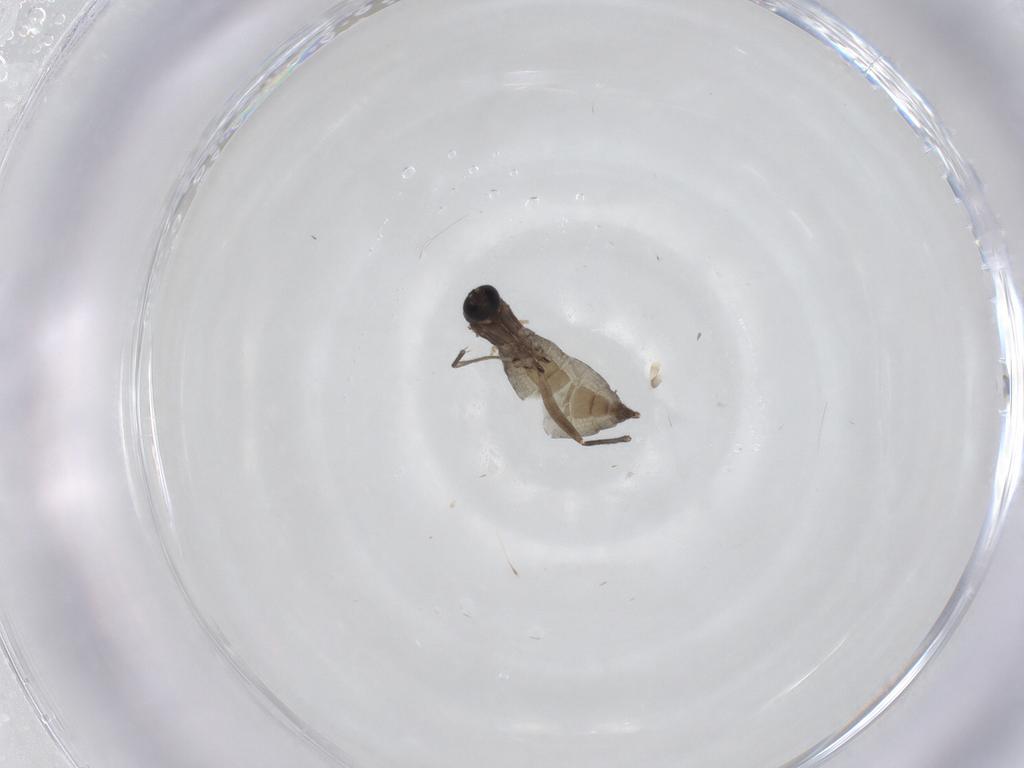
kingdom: Animalia
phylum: Arthropoda
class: Insecta
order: Diptera
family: Sciaridae
